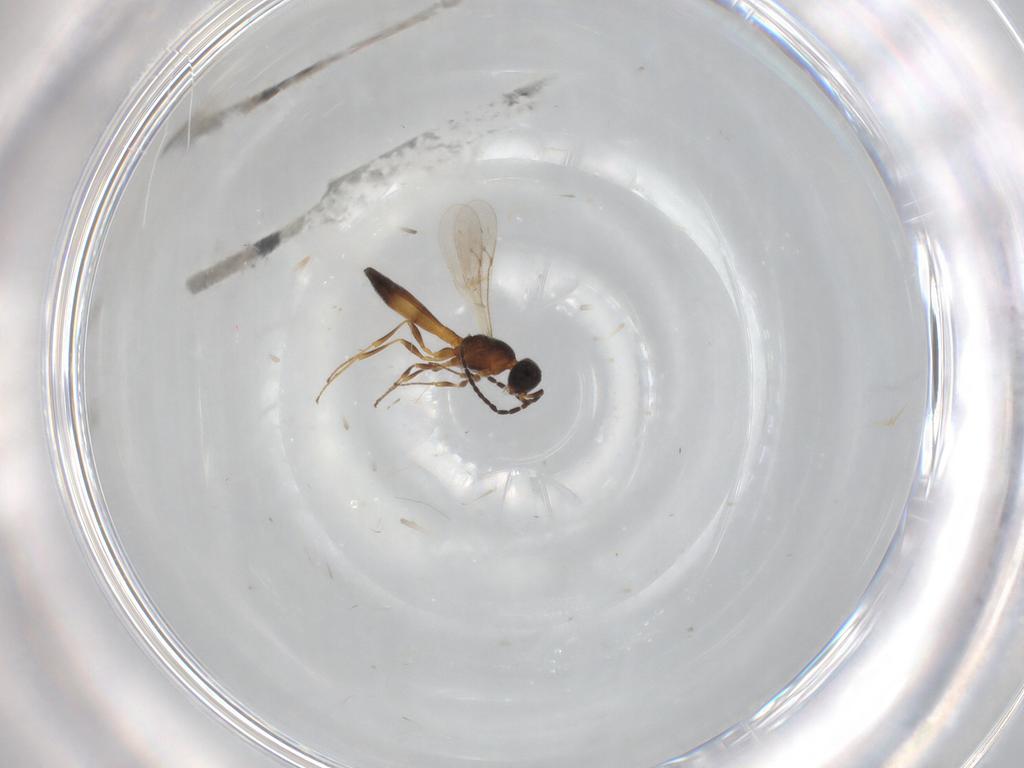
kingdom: Animalia
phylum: Arthropoda
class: Insecta
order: Hymenoptera
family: Scelionidae
